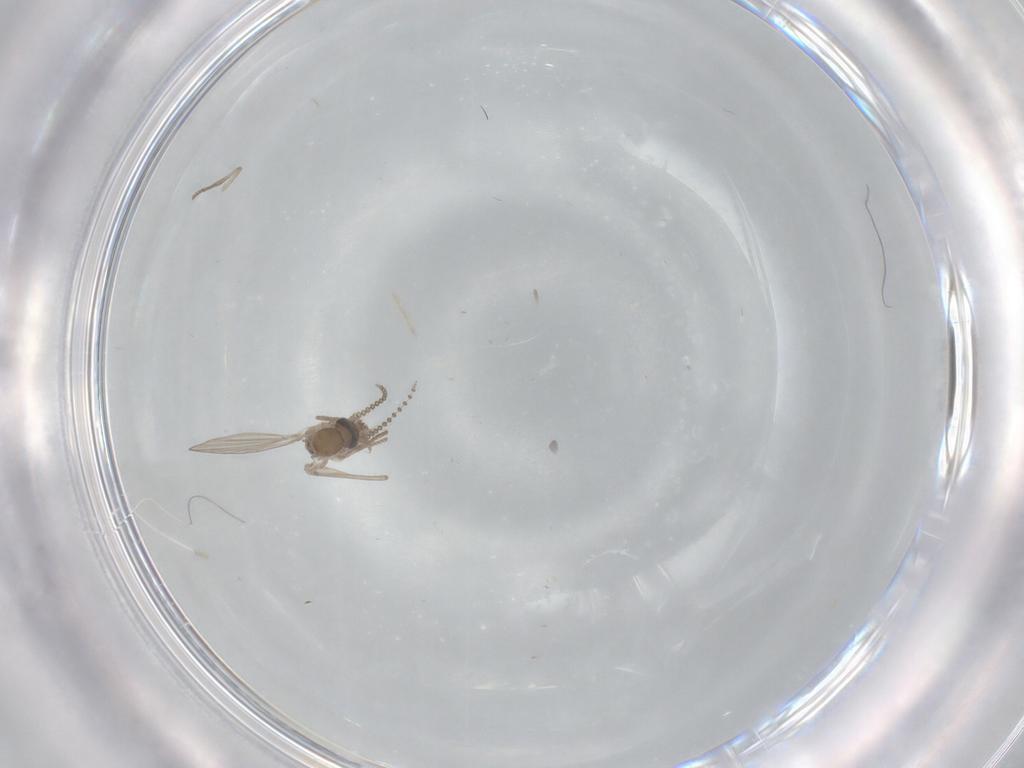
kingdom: Animalia
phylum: Arthropoda
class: Insecta
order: Diptera
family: Psychodidae
